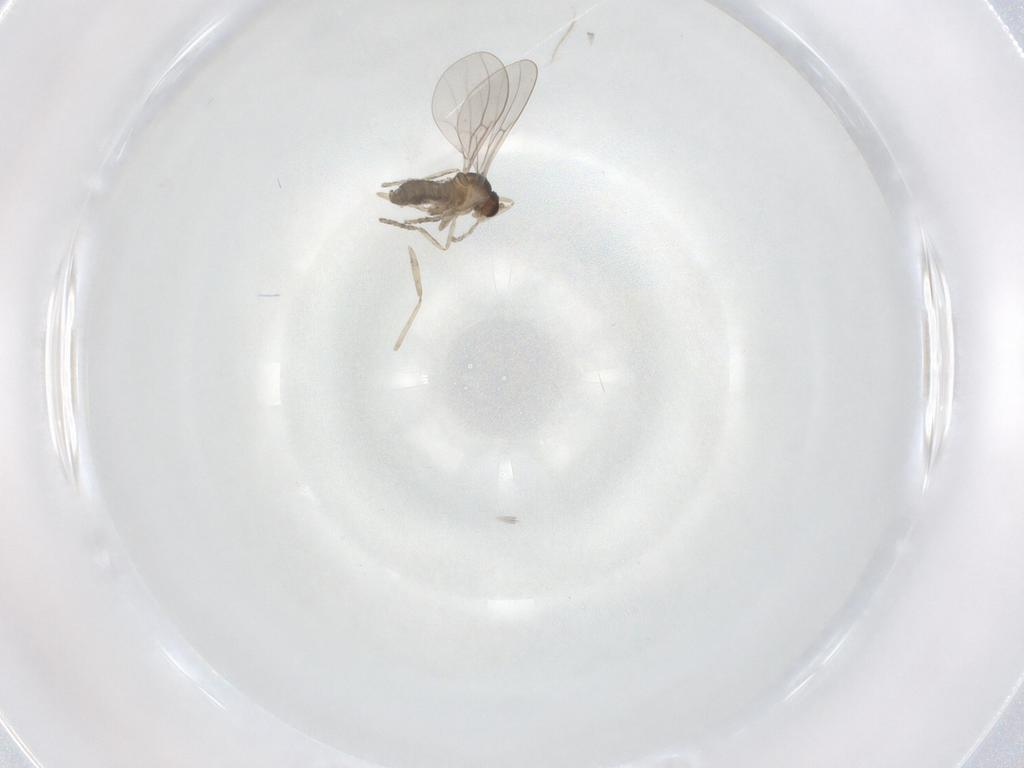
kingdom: Animalia
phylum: Arthropoda
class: Insecta
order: Diptera
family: Cecidomyiidae
